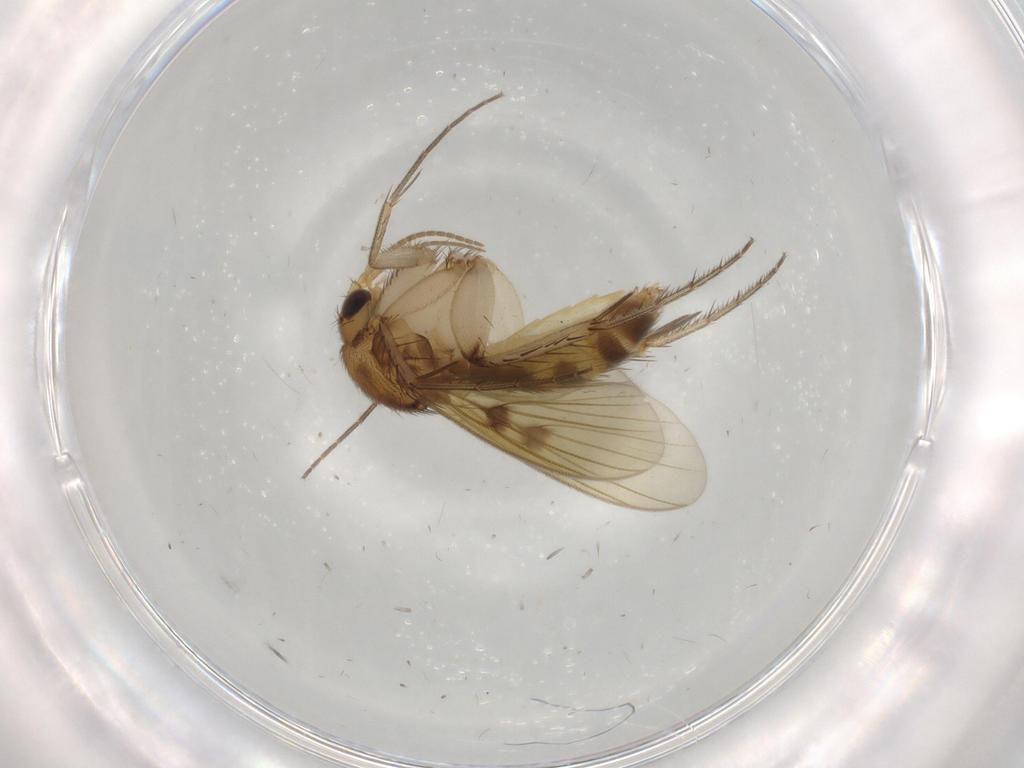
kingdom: Animalia
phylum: Arthropoda
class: Insecta
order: Diptera
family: Mycetophilidae
